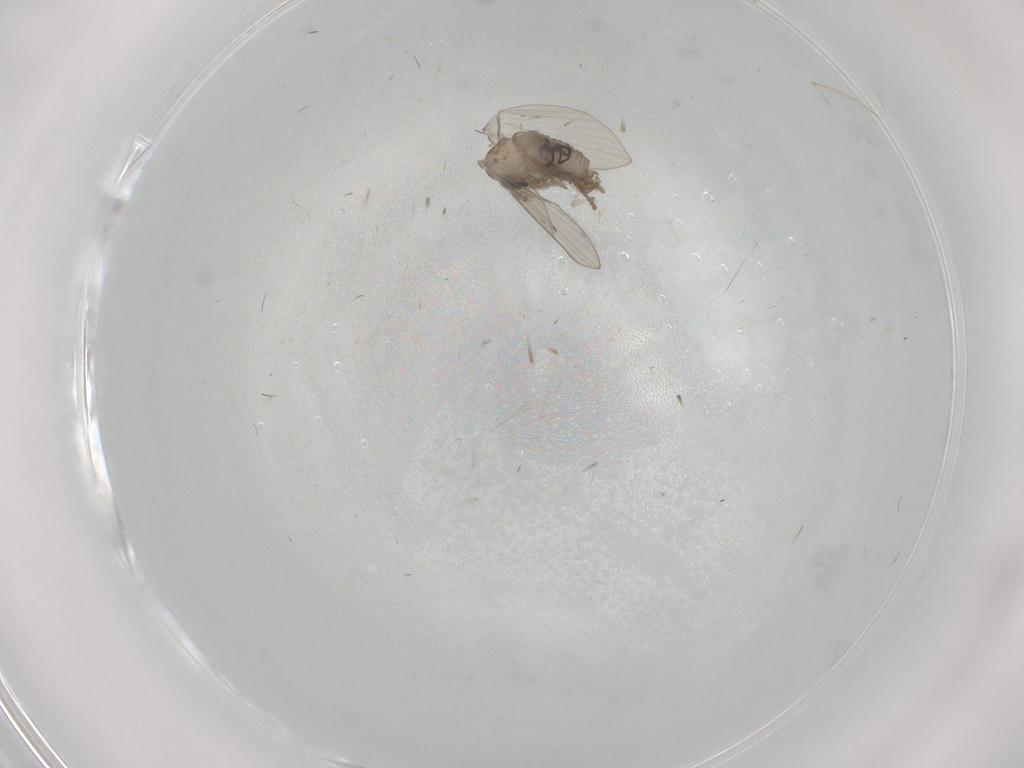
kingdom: Animalia
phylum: Arthropoda
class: Insecta
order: Diptera
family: Psychodidae
